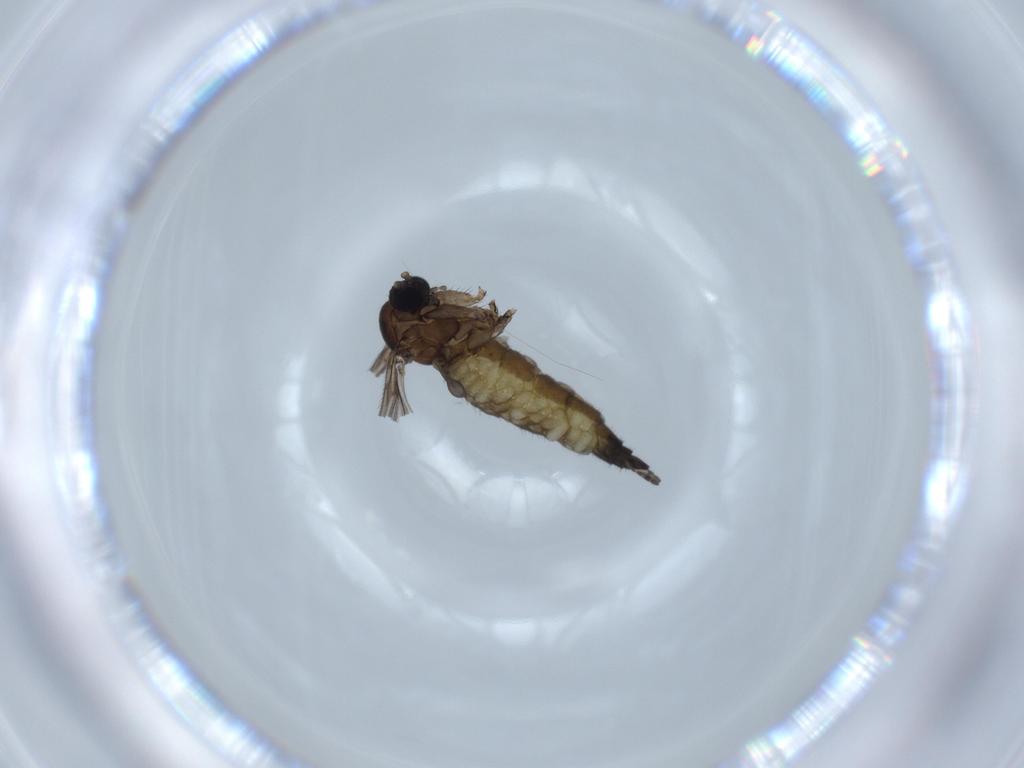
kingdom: Animalia
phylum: Arthropoda
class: Insecta
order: Diptera
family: Sciaridae
